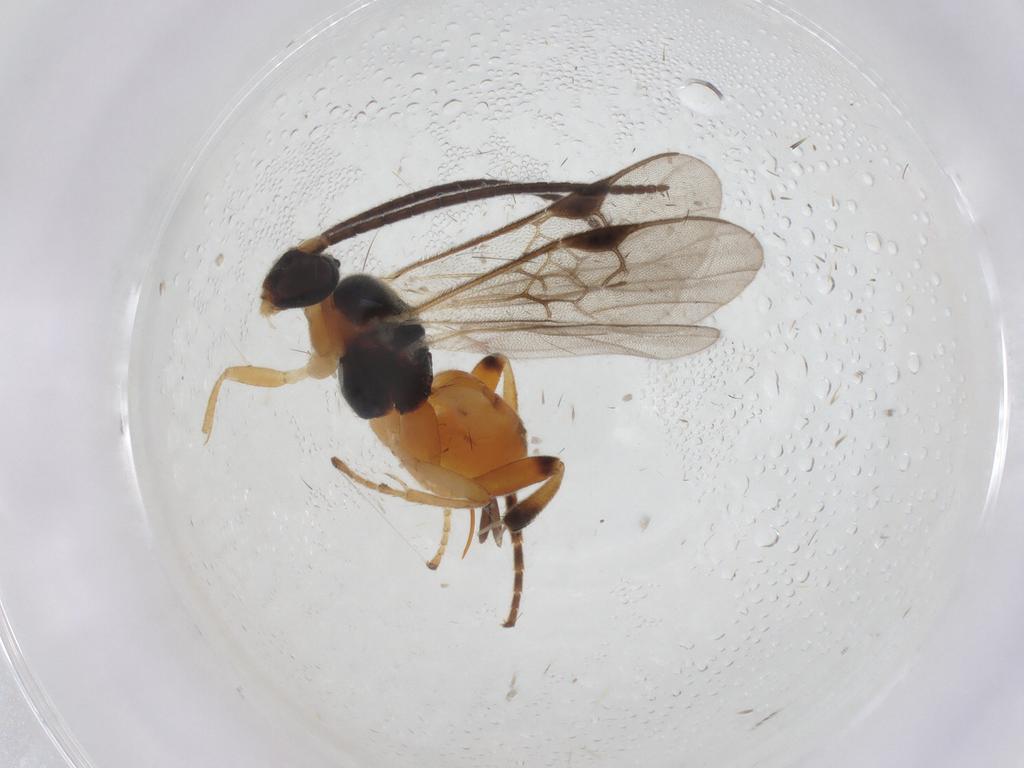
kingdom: Animalia
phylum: Arthropoda
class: Insecta
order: Hymenoptera
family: Braconidae
